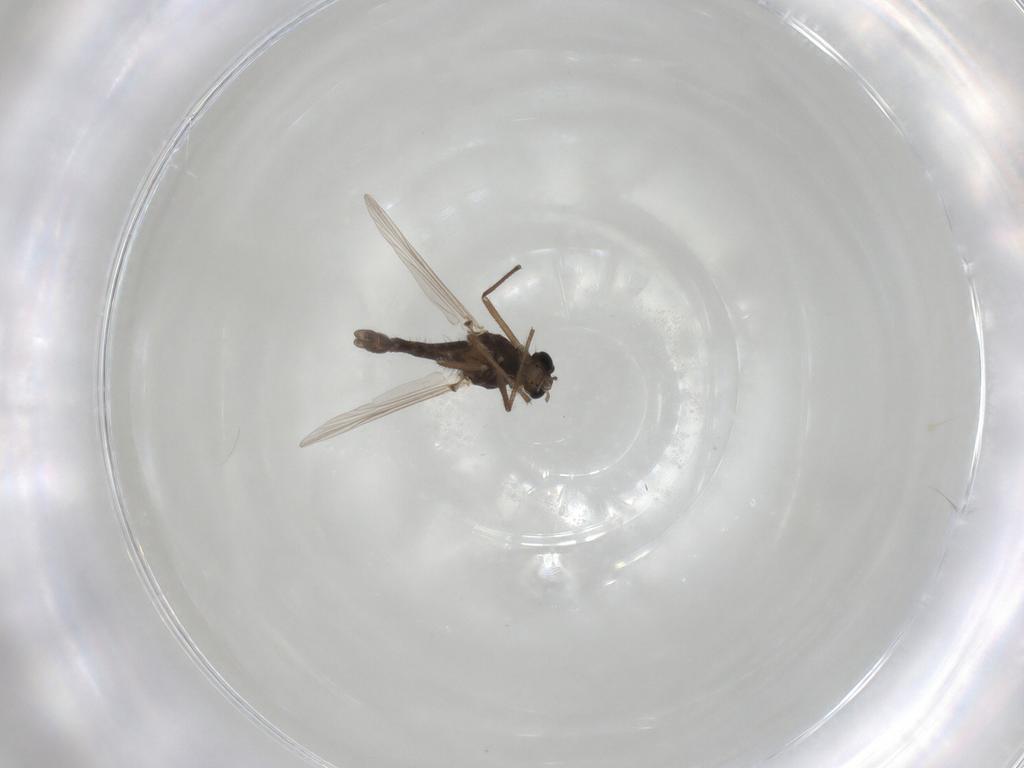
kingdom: Animalia
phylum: Arthropoda
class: Insecta
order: Diptera
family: Chironomidae
